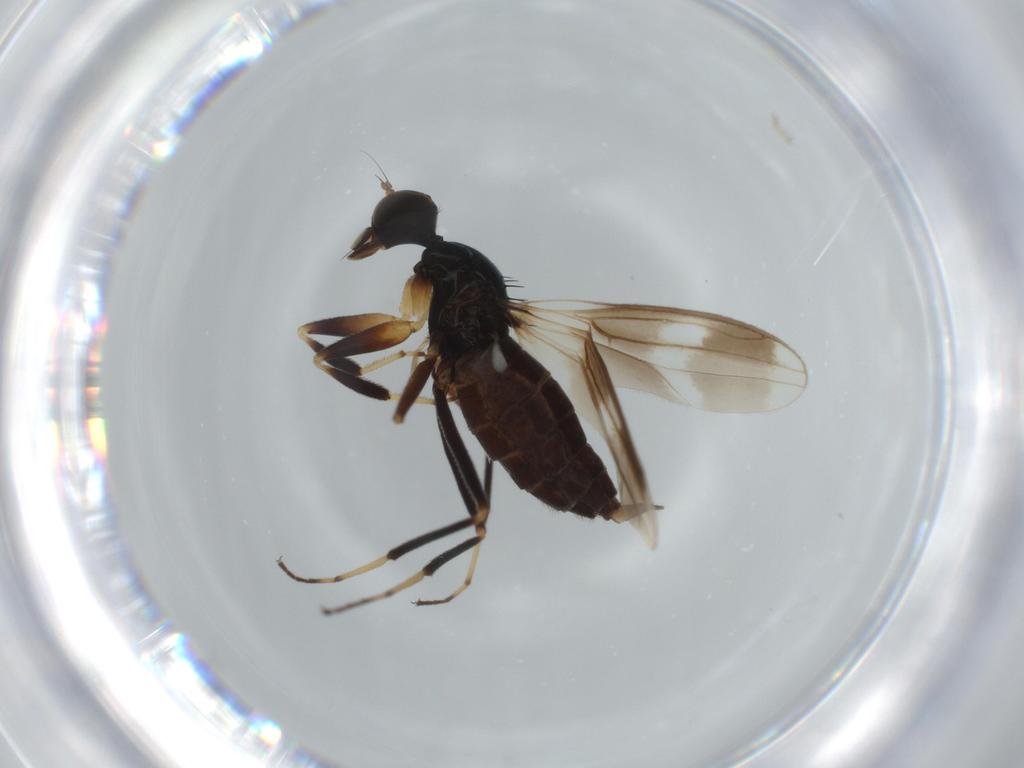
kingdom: Animalia
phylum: Arthropoda
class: Insecta
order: Diptera
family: Hybotidae
